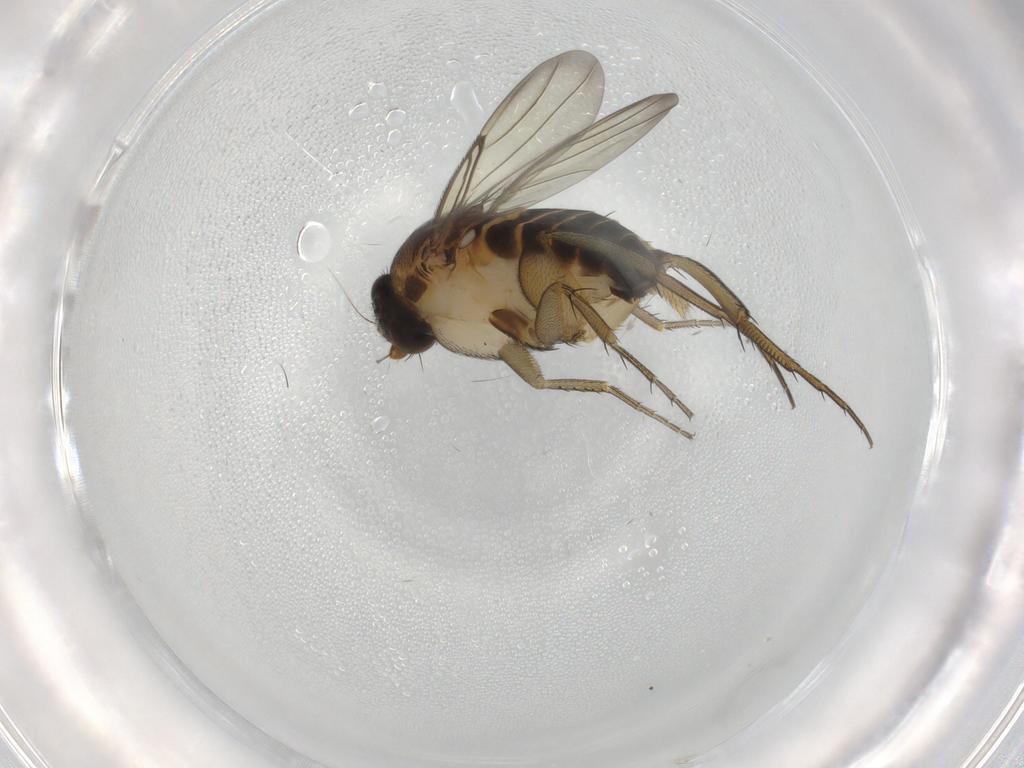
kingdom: Animalia
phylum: Arthropoda
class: Insecta
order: Diptera
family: Phoridae
